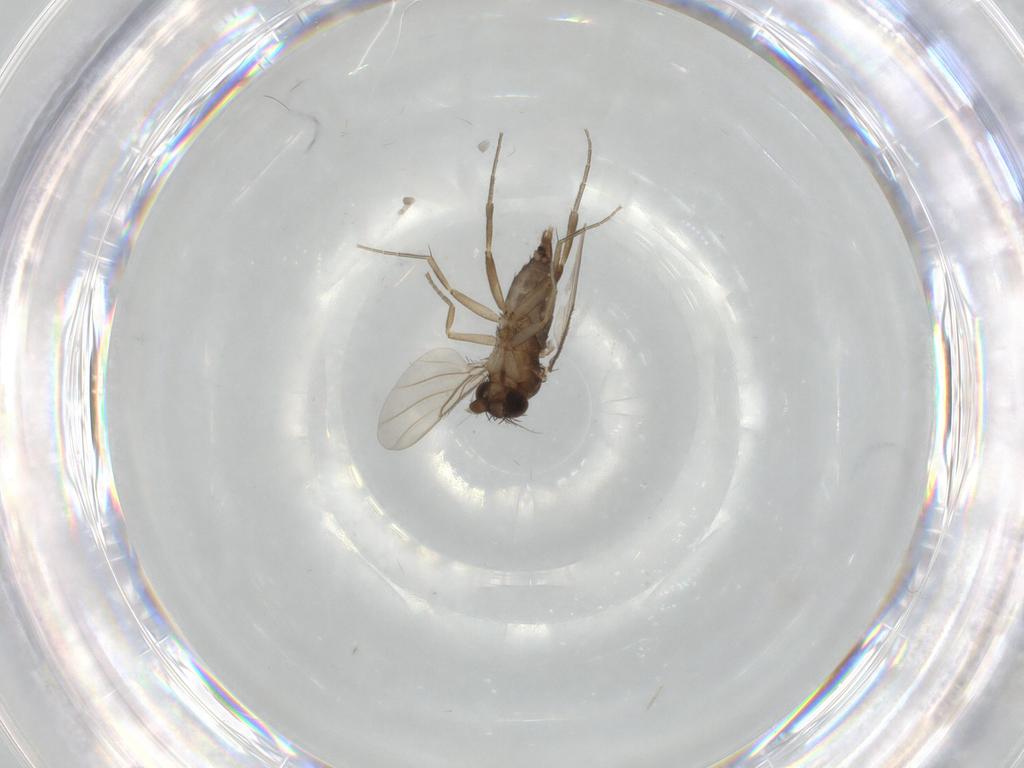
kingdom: Animalia
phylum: Arthropoda
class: Insecta
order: Diptera
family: Phoridae
